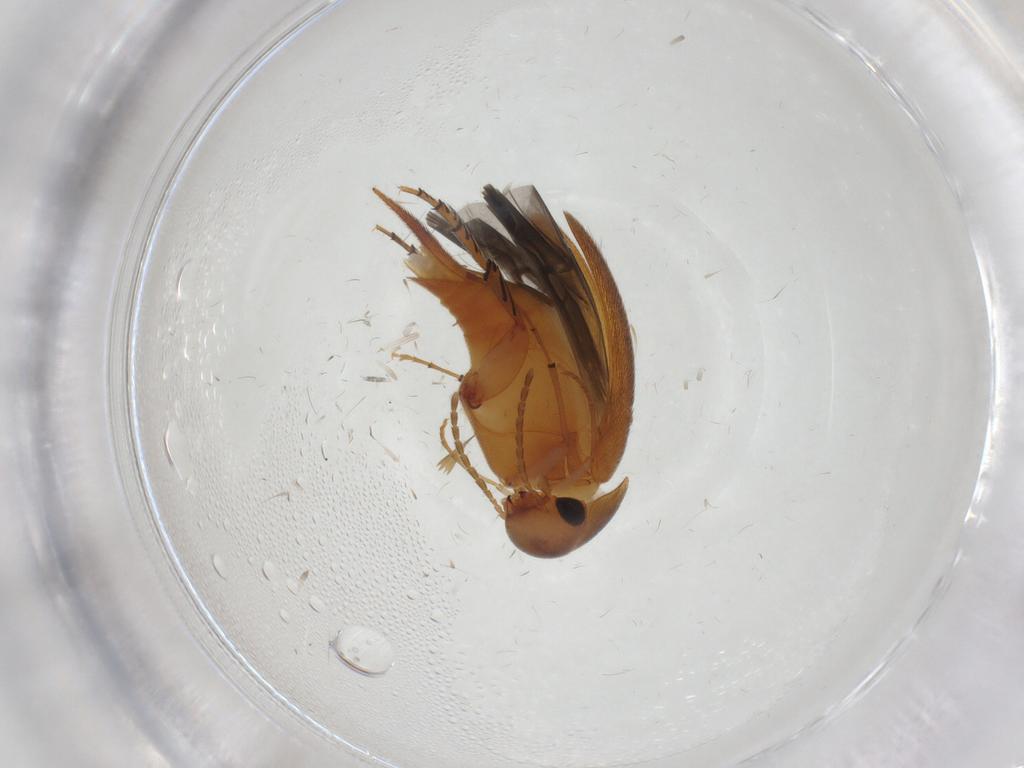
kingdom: Animalia
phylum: Arthropoda
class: Insecta
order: Coleoptera
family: Mordellidae
